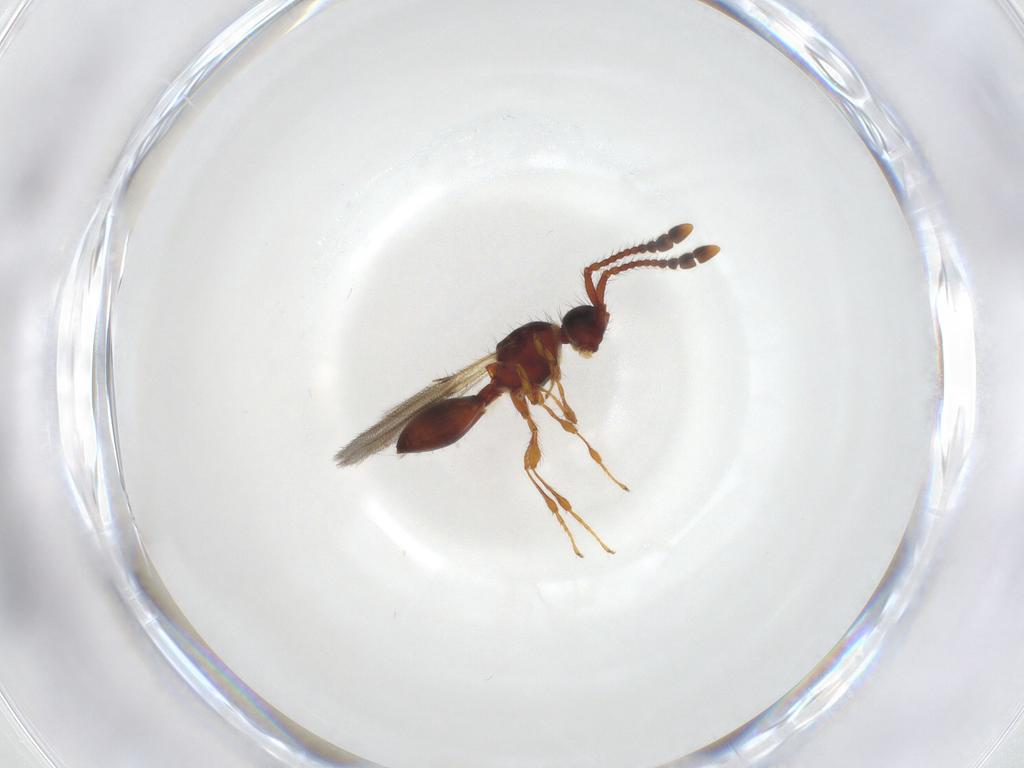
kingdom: Animalia
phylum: Arthropoda
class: Insecta
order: Hymenoptera
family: Diapriidae
